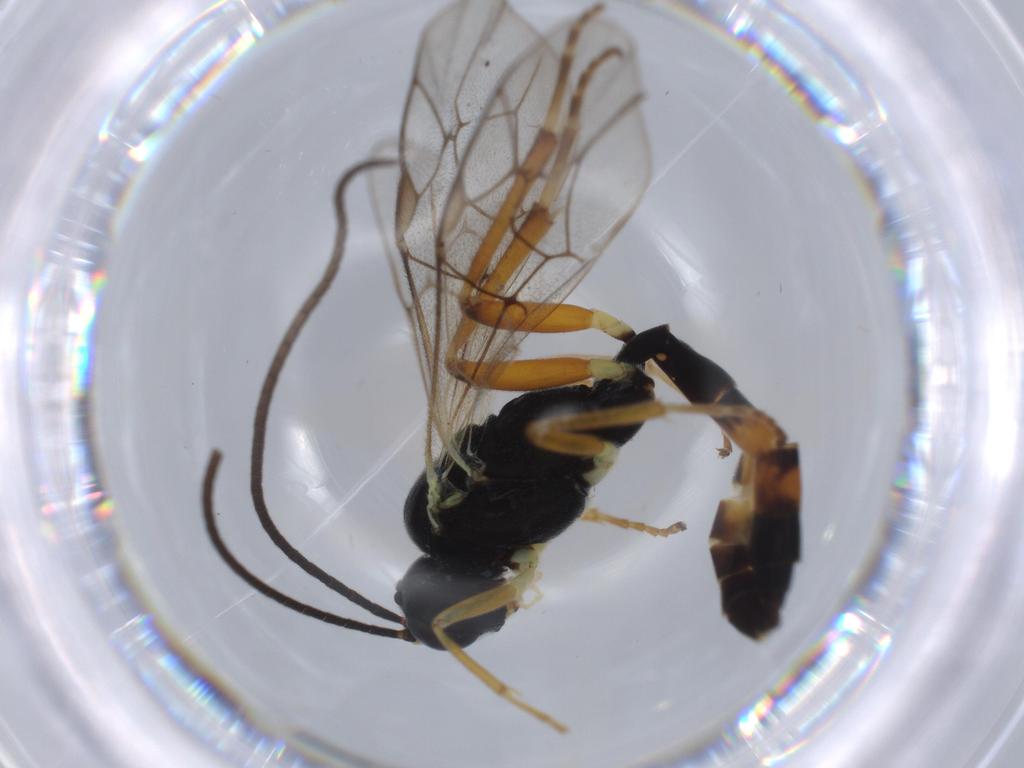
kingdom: Animalia
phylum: Arthropoda
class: Insecta
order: Hymenoptera
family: Ichneumonidae
